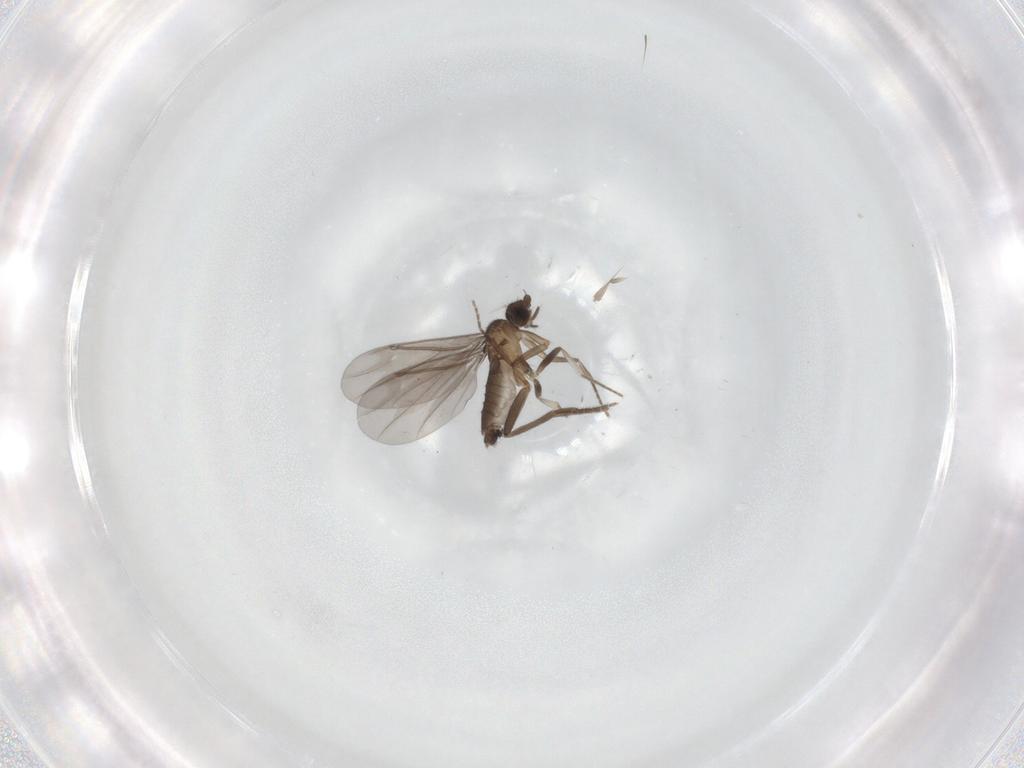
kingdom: Animalia
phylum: Arthropoda
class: Insecta
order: Diptera
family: Phoridae
